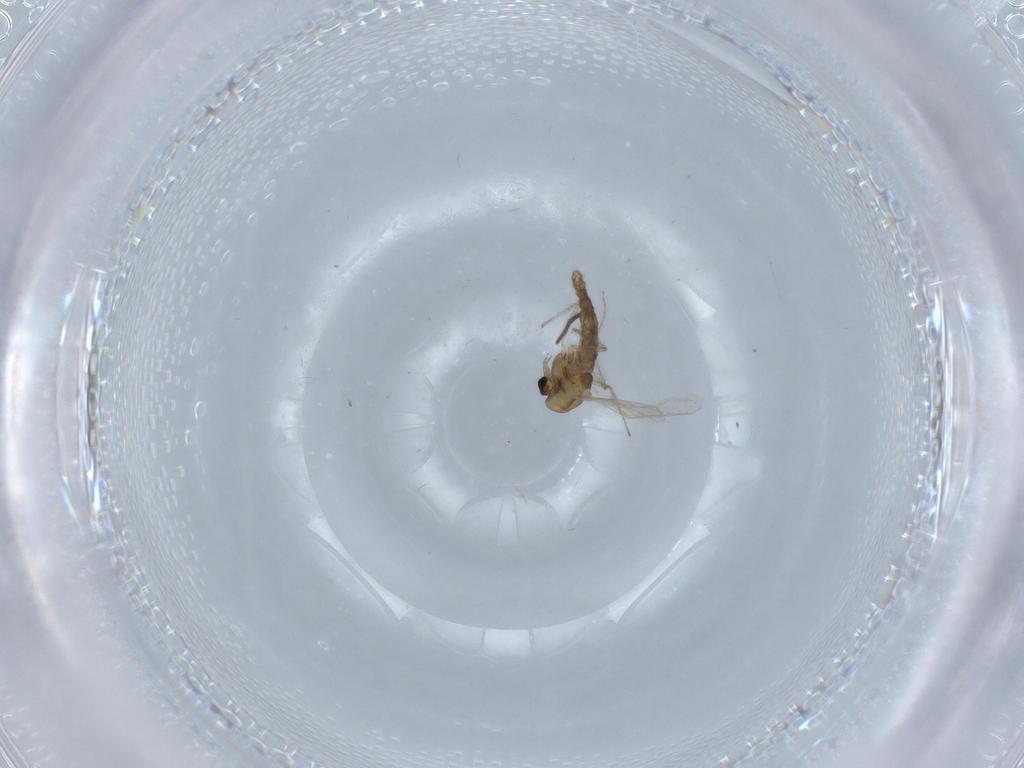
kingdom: Animalia
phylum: Arthropoda
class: Insecta
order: Diptera
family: Chironomidae
